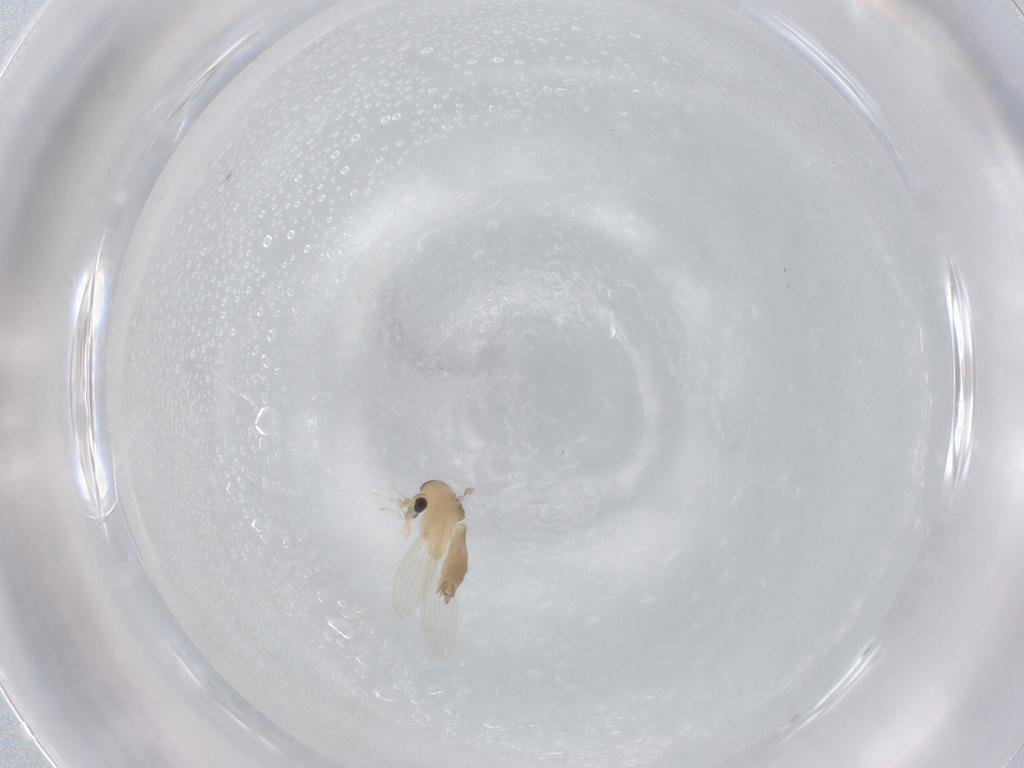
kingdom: Animalia
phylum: Arthropoda
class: Insecta
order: Diptera
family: Psychodidae
